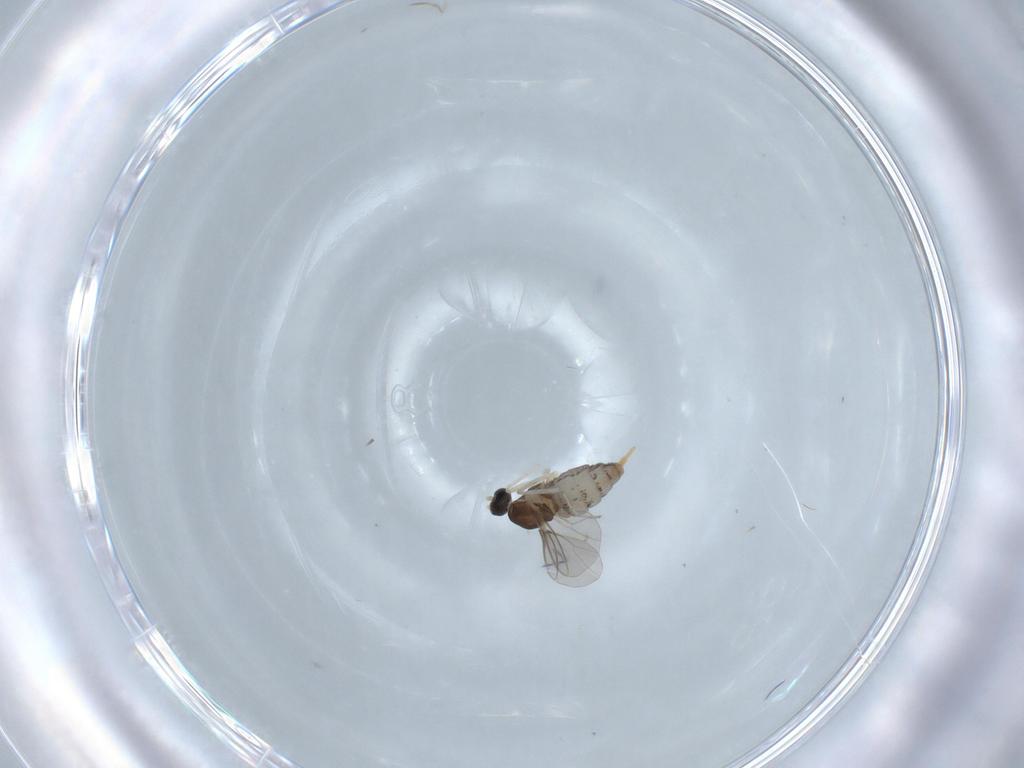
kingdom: Animalia
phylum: Arthropoda
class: Insecta
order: Diptera
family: Cecidomyiidae
